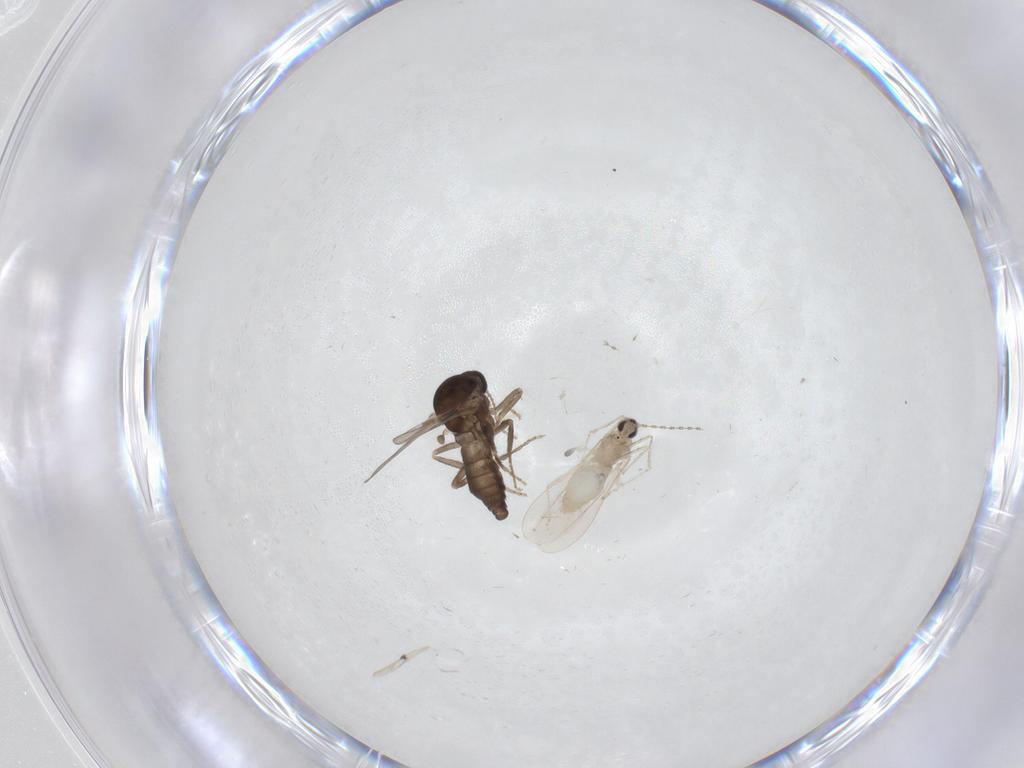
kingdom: Animalia
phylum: Arthropoda
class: Insecta
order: Diptera
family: Ceratopogonidae
